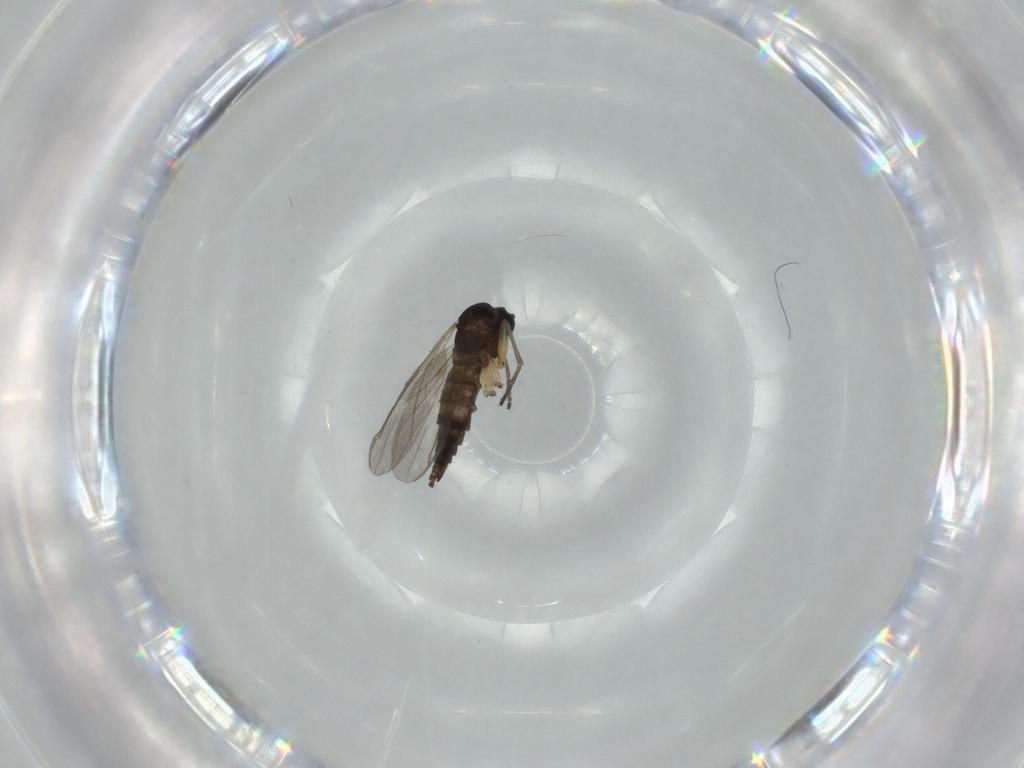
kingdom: Animalia
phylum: Arthropoda
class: Insecta
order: Diptera
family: Sciaridae
